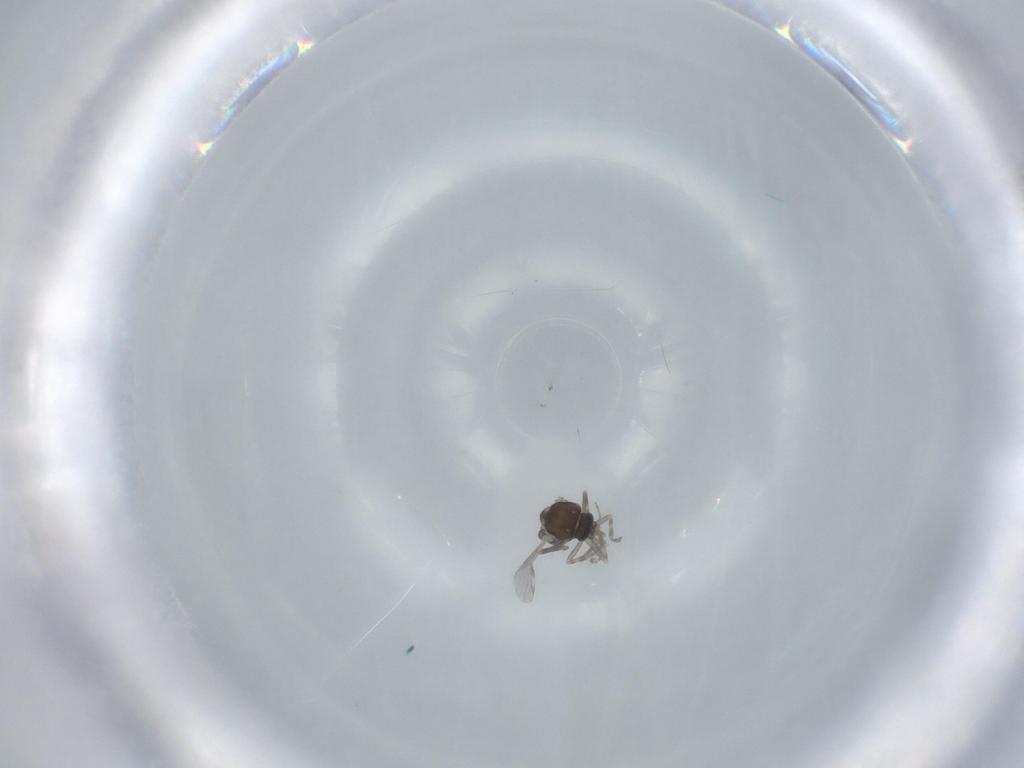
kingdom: Animalia
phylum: Arthropoda
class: Insecta
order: Diptera
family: Ceratopogonidae
